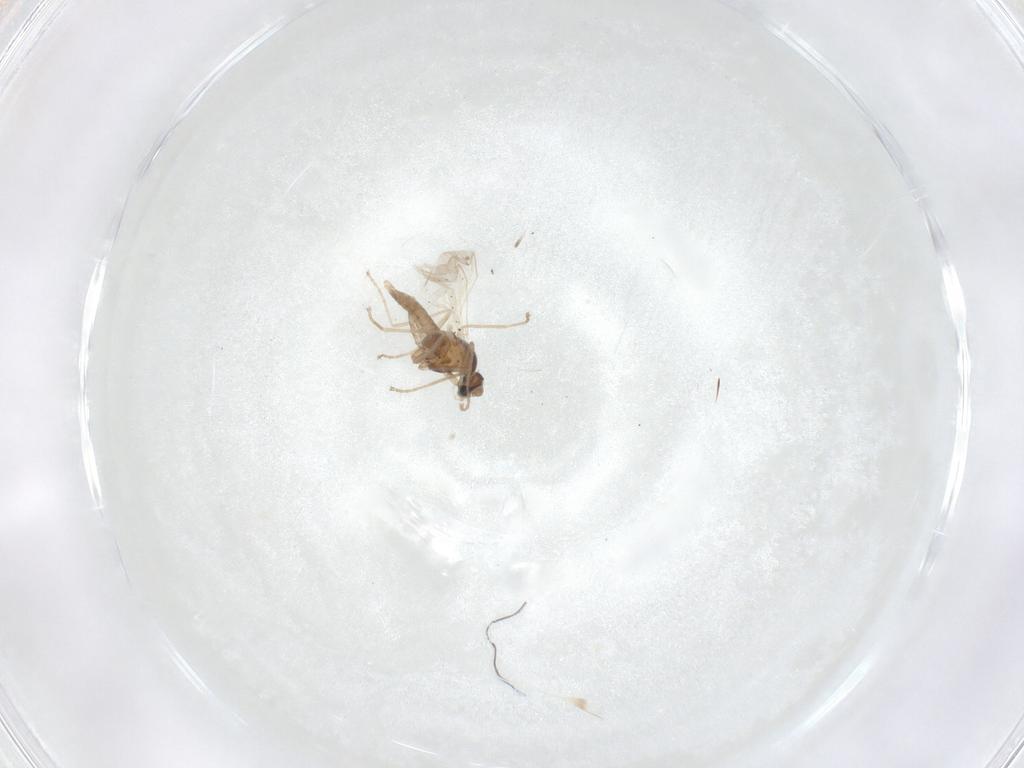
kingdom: Animalia
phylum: Arthropoda
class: Insecta
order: Diptera
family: Cecidomyiidae
